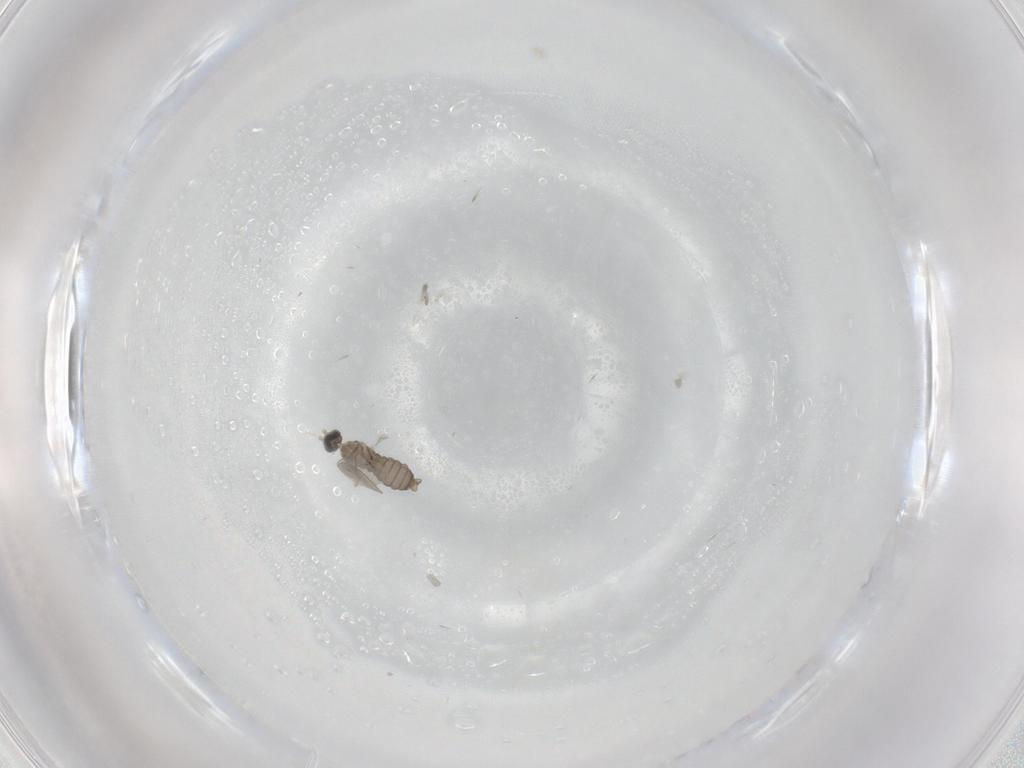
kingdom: Animalia
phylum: Arthropoda
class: Insecta
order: Diptera
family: Cecidomyiidae
